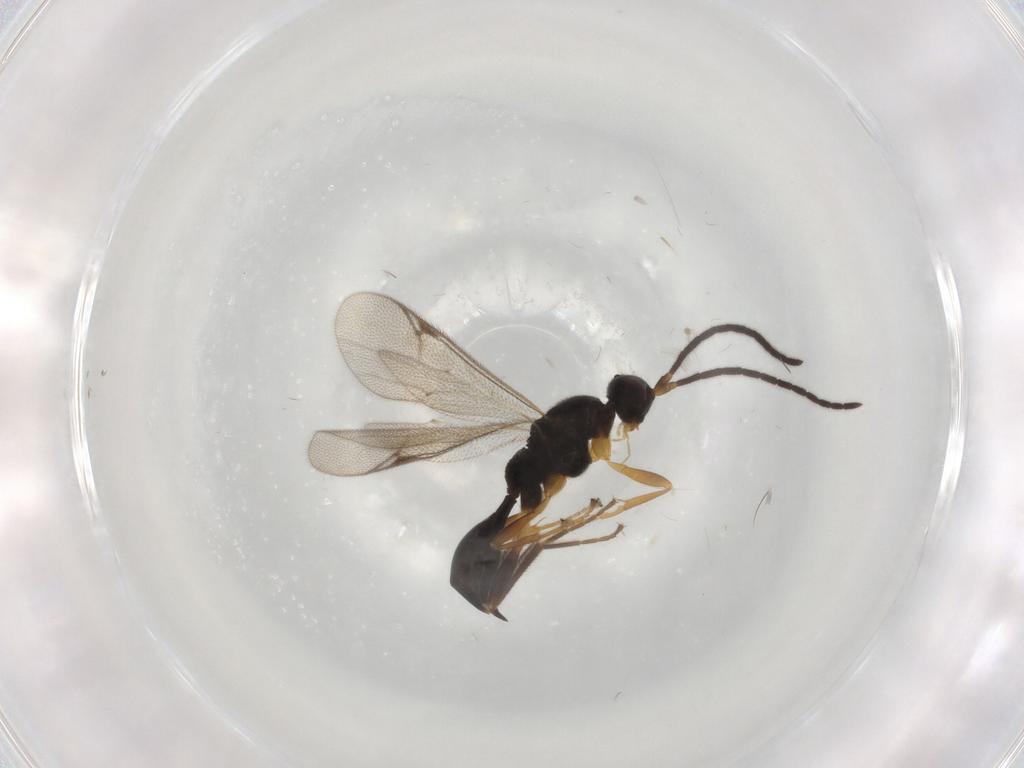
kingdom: Animalia
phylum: Arthropoda
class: Insecta
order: Hymenoptera
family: Proctotrupidae
